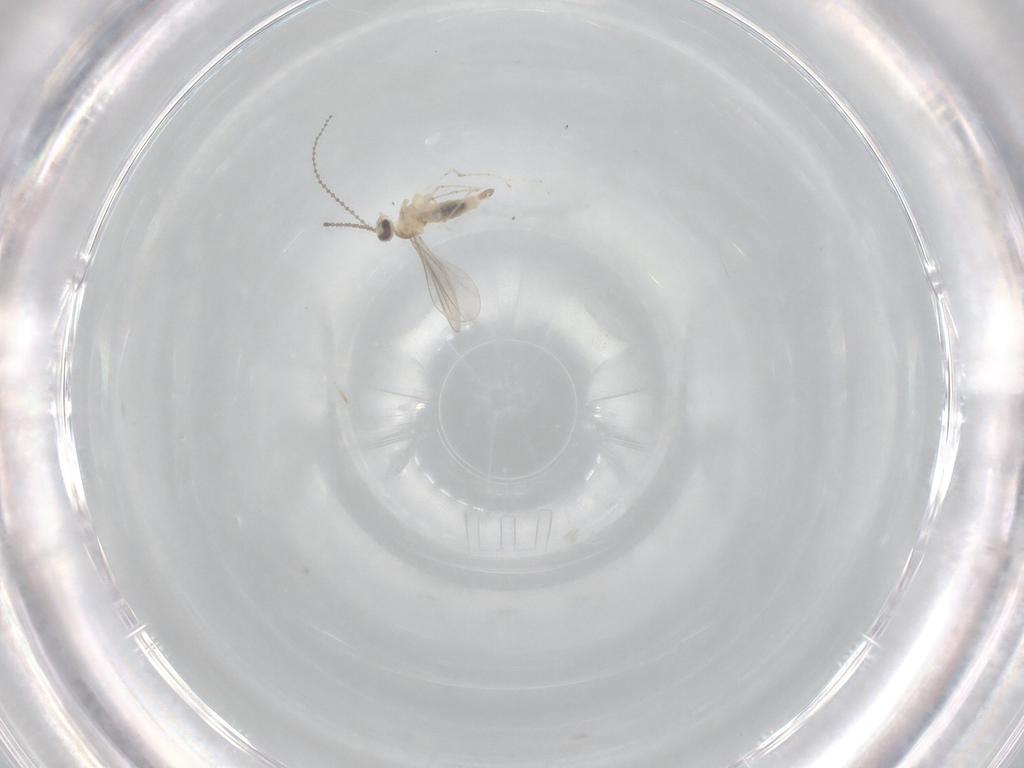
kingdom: Animalia
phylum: Arthropoda
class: Insecta
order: Diptera
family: Cecidomyiidae
